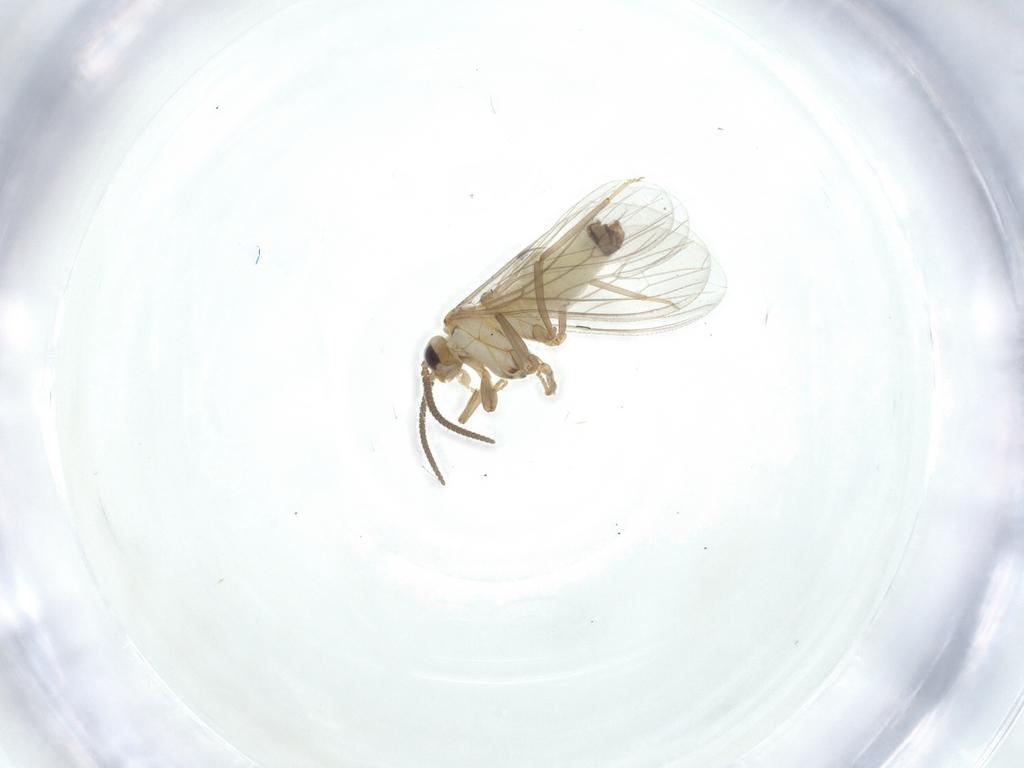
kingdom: Animalia
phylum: Arthropoda
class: Insecta
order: Neuroptera
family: Coniopterygidae
